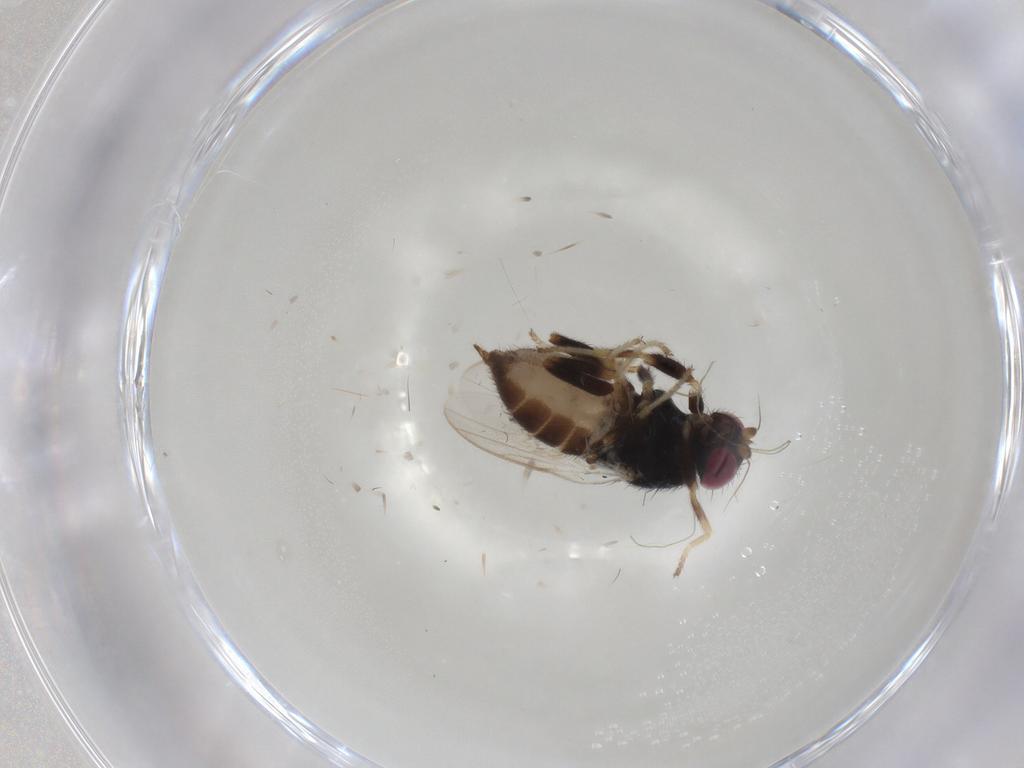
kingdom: Animalia
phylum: Arthropoda
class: Insecta
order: Diptera
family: Chloropidae
